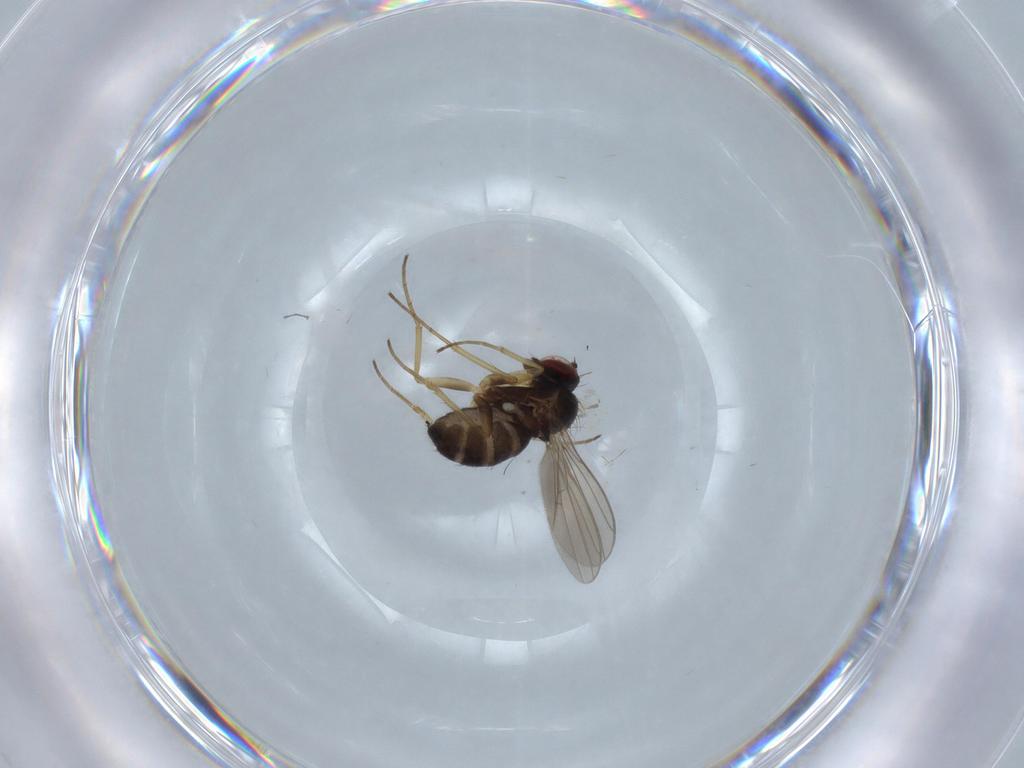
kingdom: Animalia
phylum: Arthropoda
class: Insecta
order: Diptera
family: Dolichopodidae
